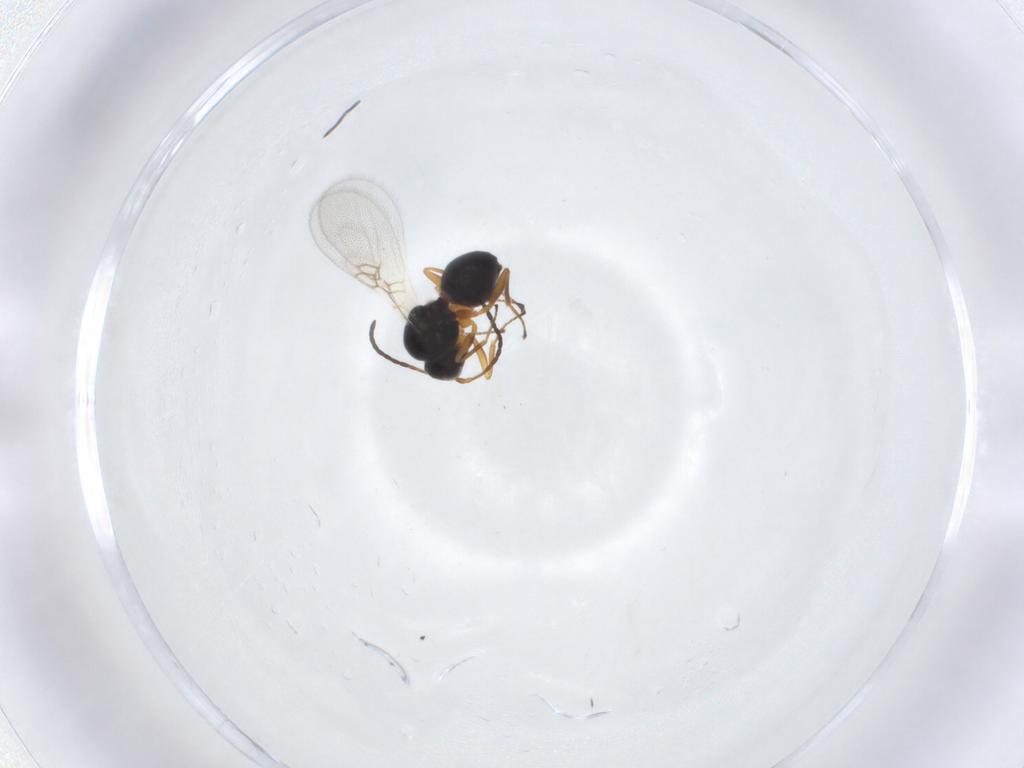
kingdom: Animalia
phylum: Arthropoda
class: Insecta
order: Hymenoptera
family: Figitidae
